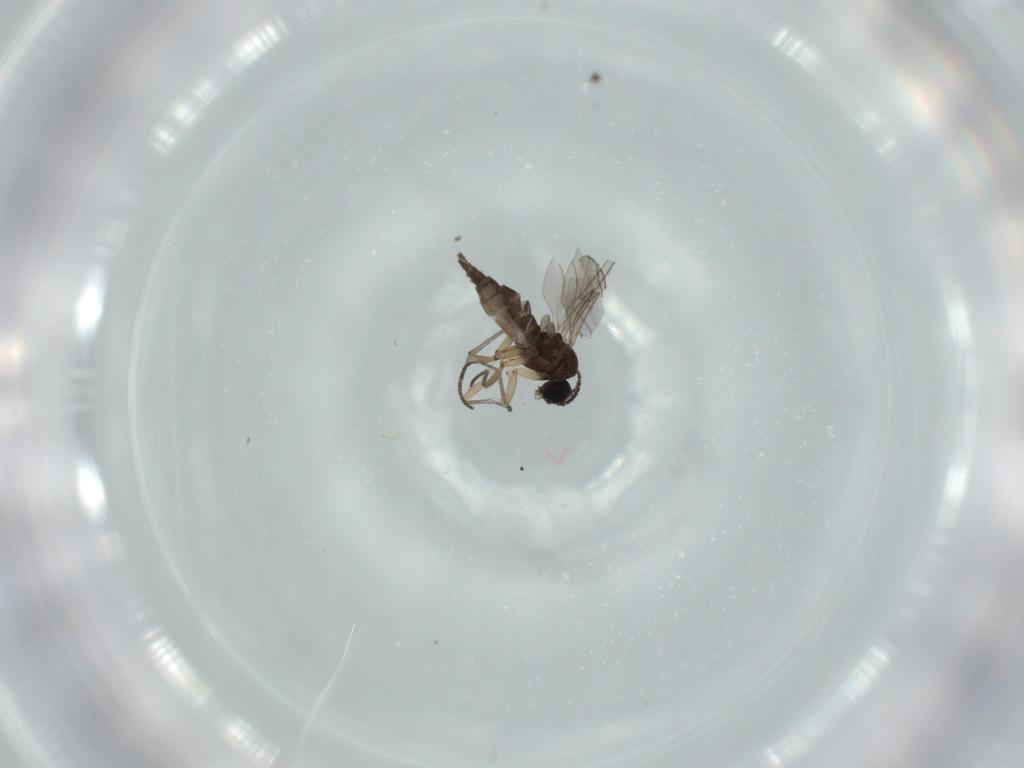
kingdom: Animalia
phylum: Arthropoda
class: Insecta
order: Diptera
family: Sciaridae
